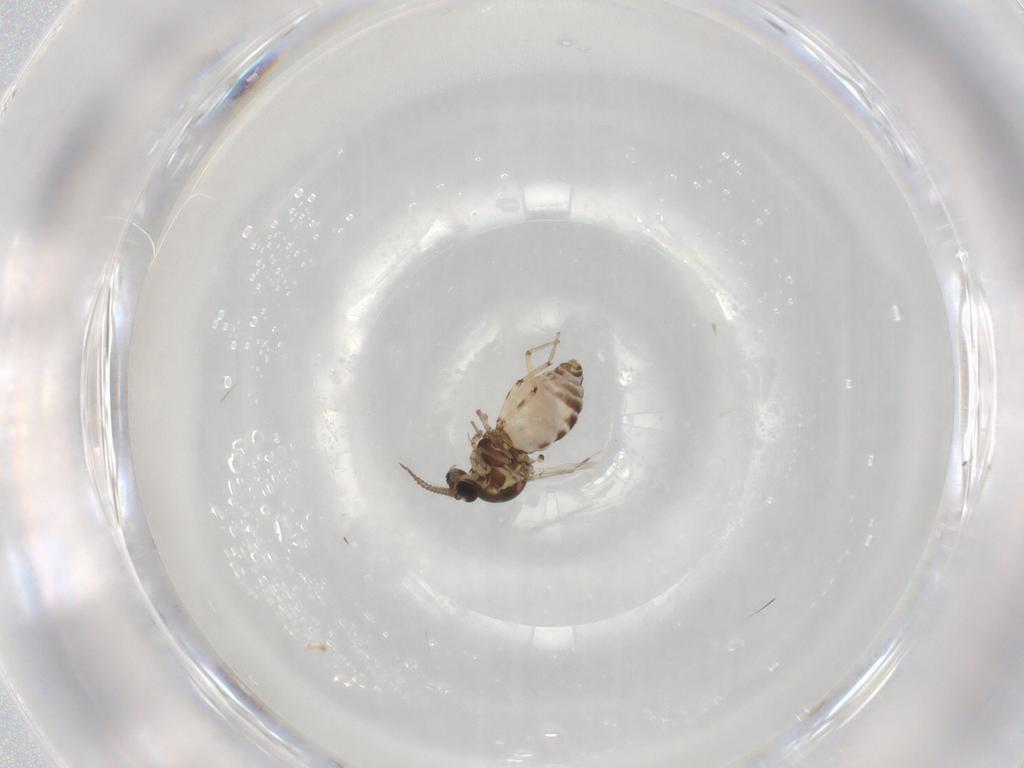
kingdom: Animalia
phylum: Arthropoda
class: Insecta
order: Diptera
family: Ceratopogonidae
